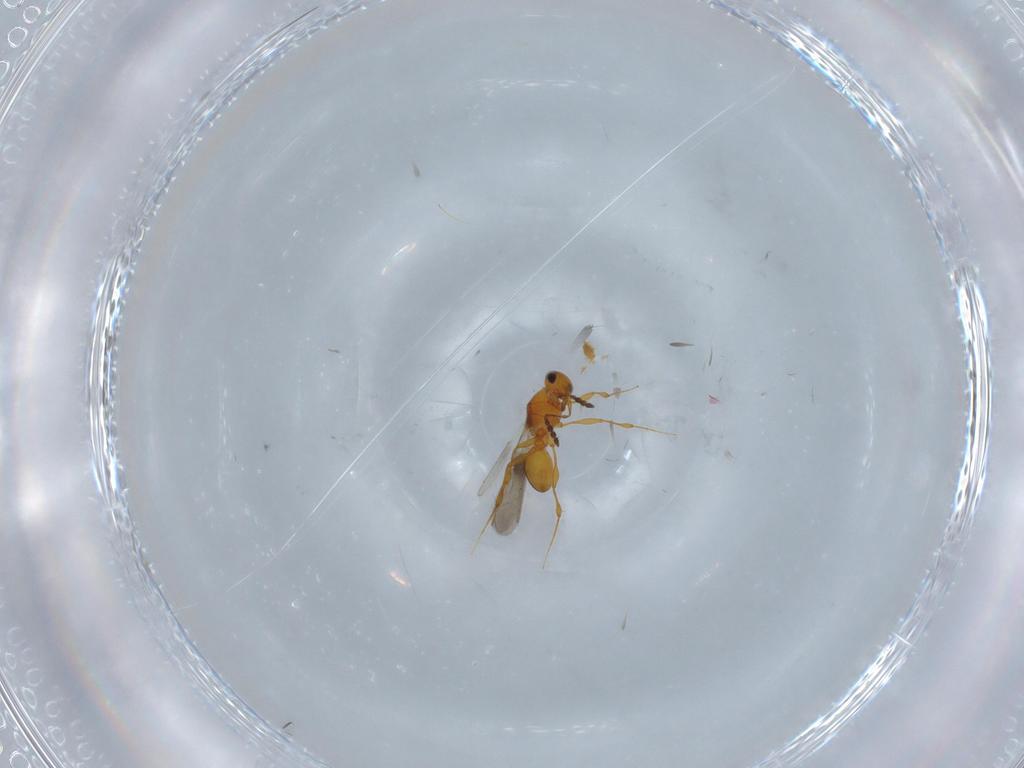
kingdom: Animalia
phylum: Arthropoda
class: Insecta
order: Hymenoptera
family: Platygastridae
